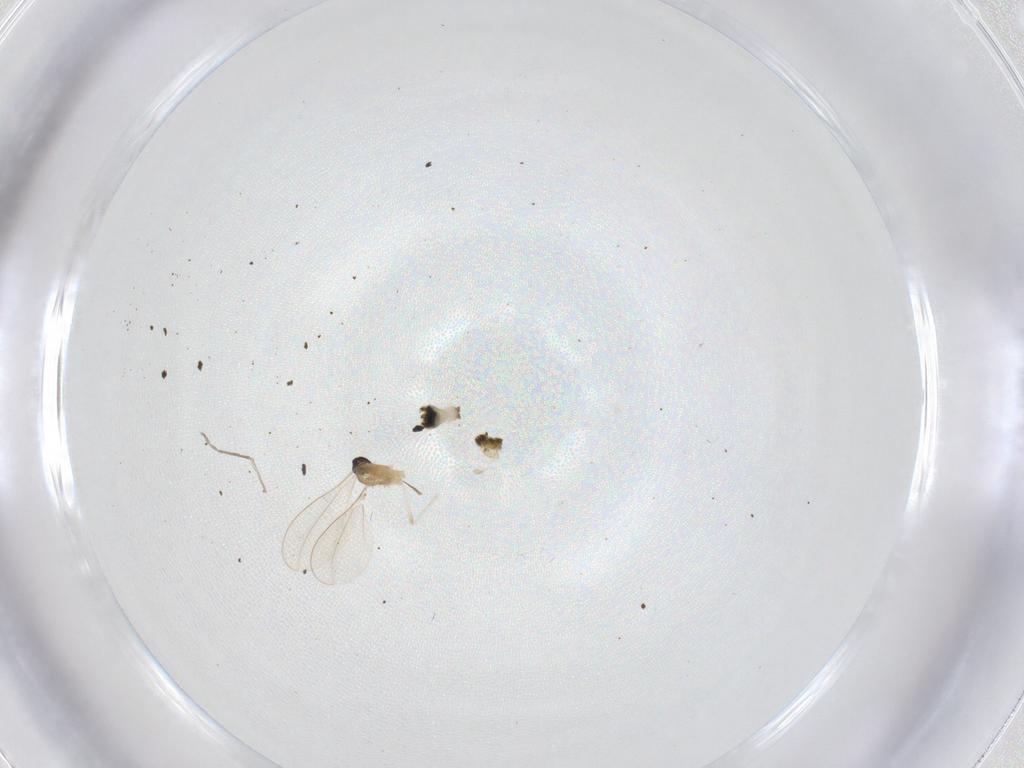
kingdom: Animalia
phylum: Arthropoda
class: Insecta
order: Diptera
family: Cecidomyiidae
